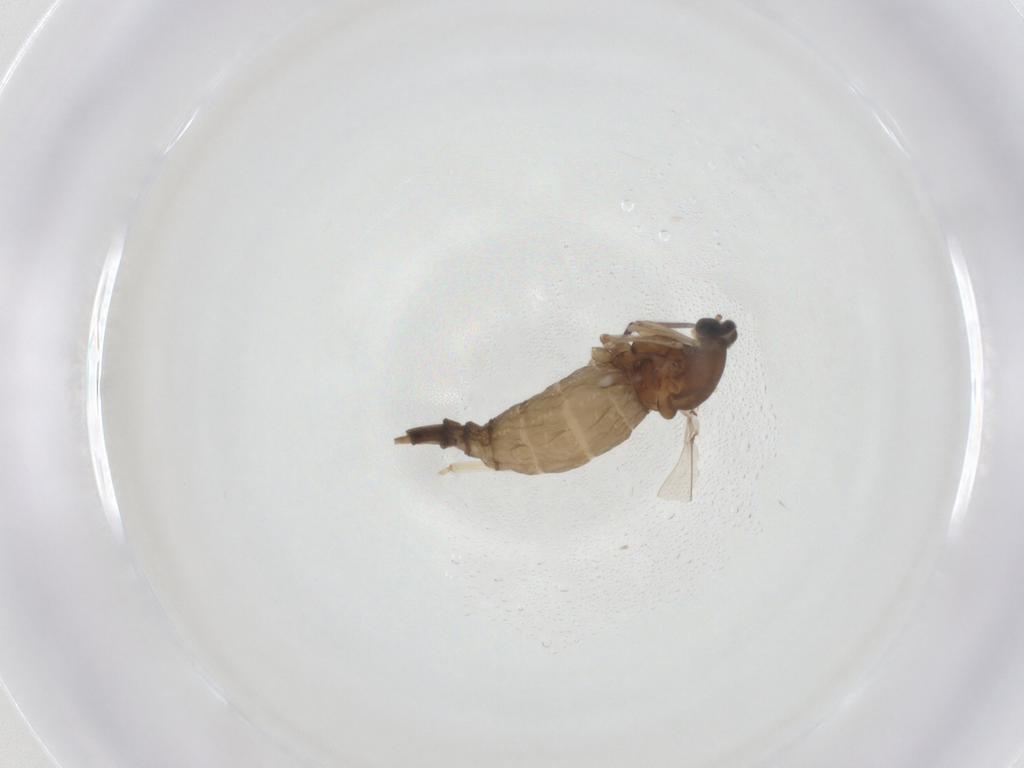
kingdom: Animalia
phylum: Arthropoda
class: Insecta
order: Diptera
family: Cecidomyiidae
